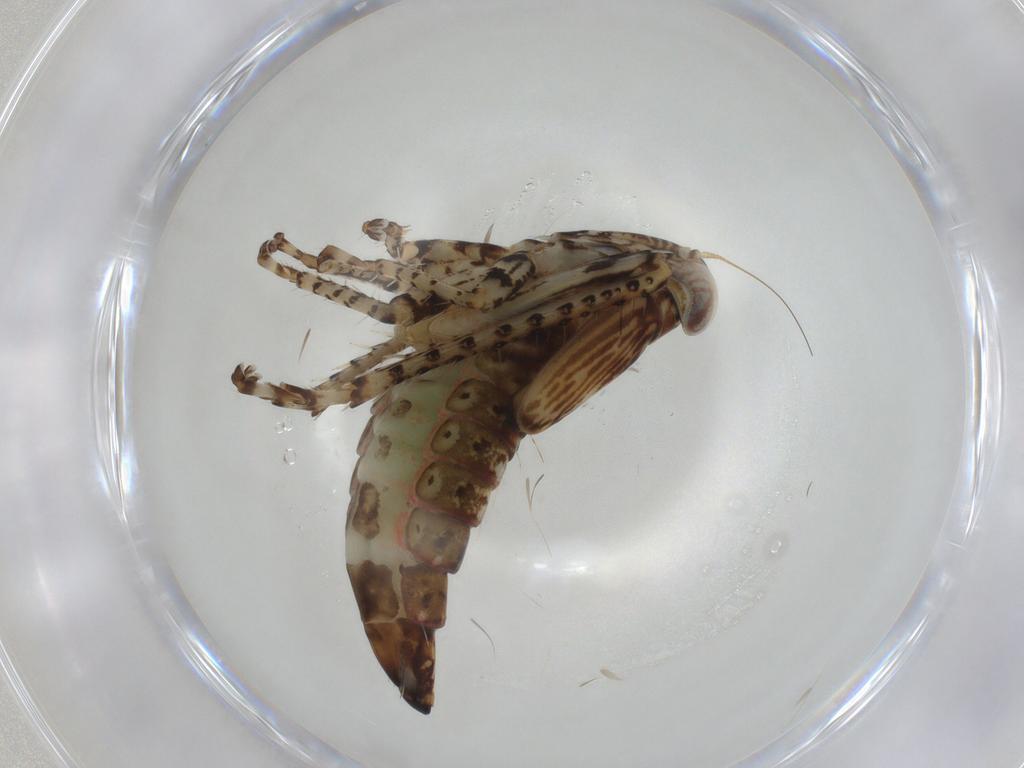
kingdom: Animalia
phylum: Arthropoda
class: Insecta
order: Hemiptera
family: Cicadellidae
